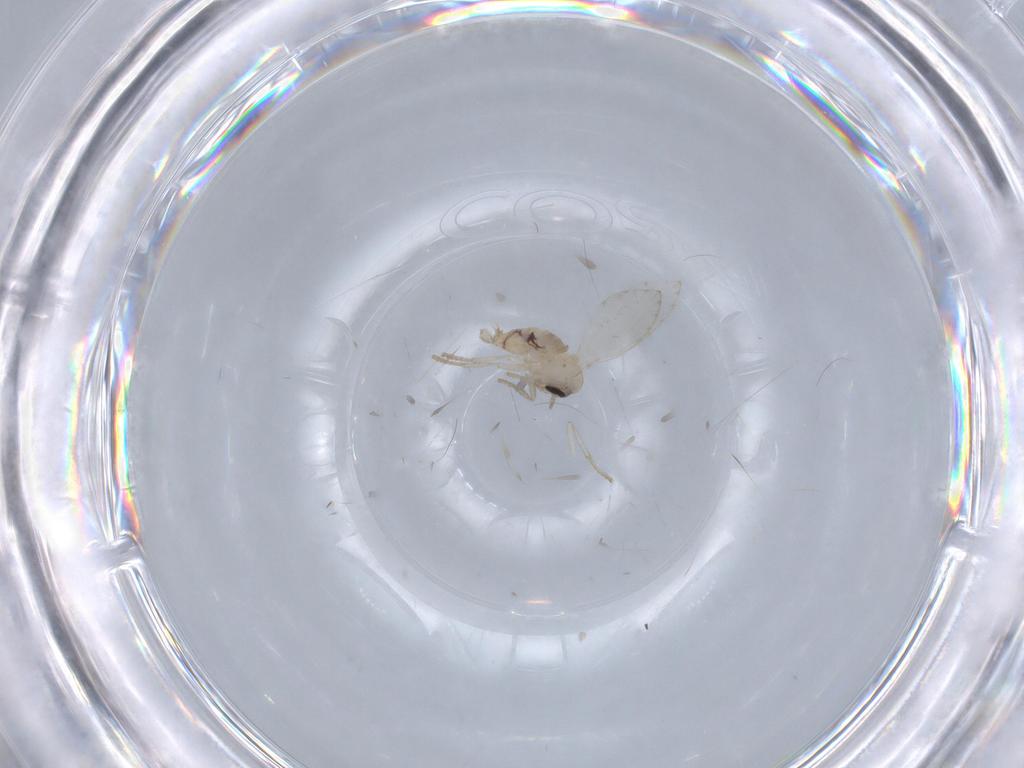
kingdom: Animalia
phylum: Arthropoda
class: Insecta
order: Diptera
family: Psychodidae
